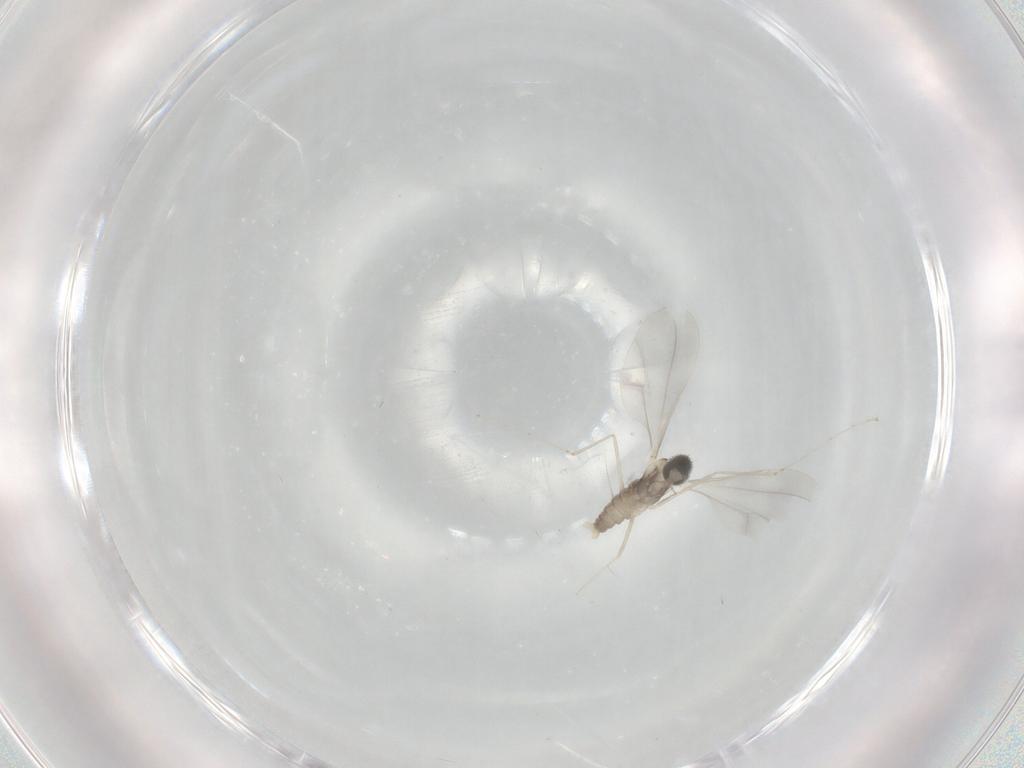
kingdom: Animalia
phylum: Arthropoda
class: Insecta
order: Diptera
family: Cecidomyiidae
